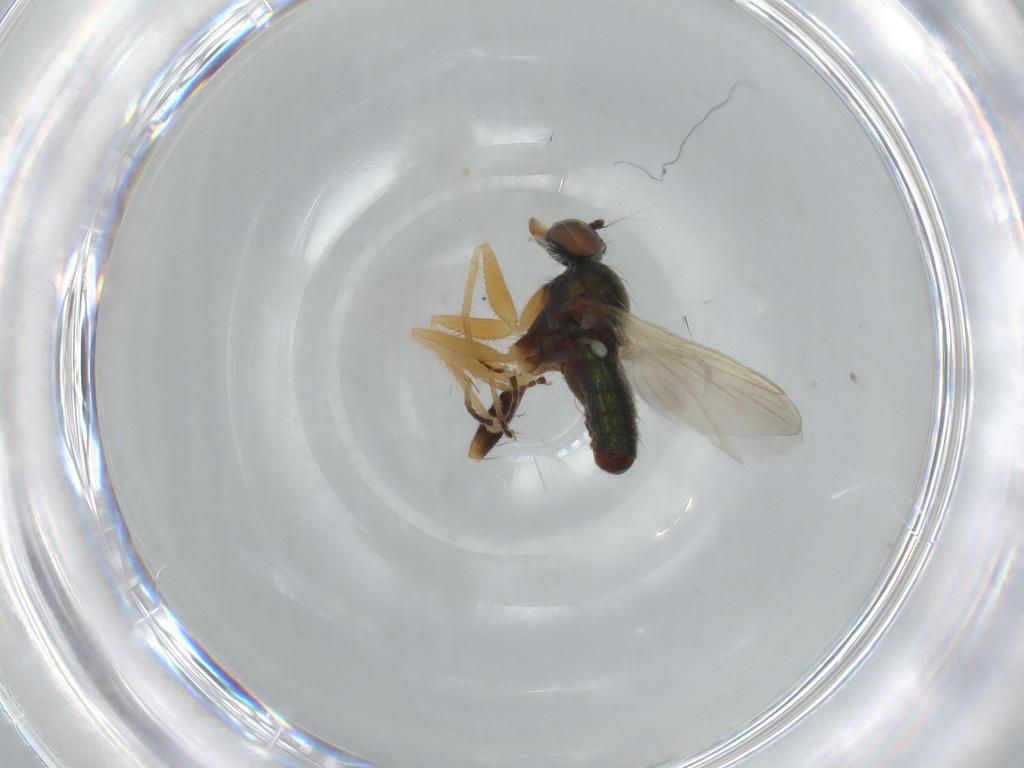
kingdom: Animalia
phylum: Arthropoda
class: Insecta
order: Diptera
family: Dolichopodidae
